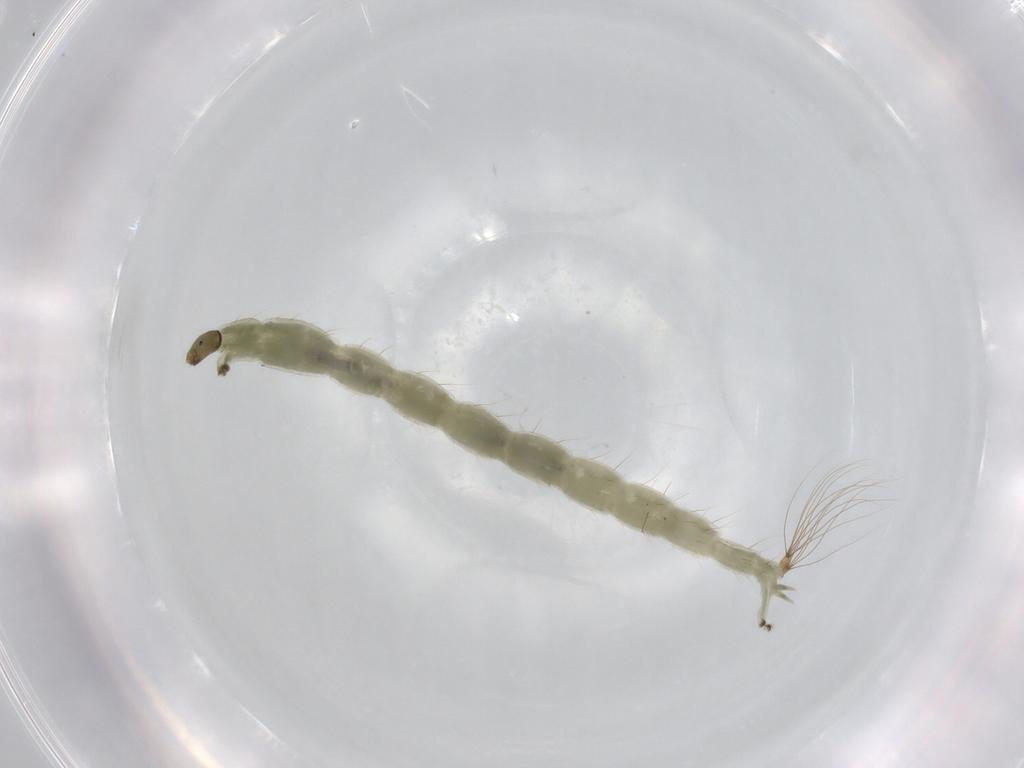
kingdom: Animalia
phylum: Arthropoda
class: Insecta
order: Diptera
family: Chironomidae
